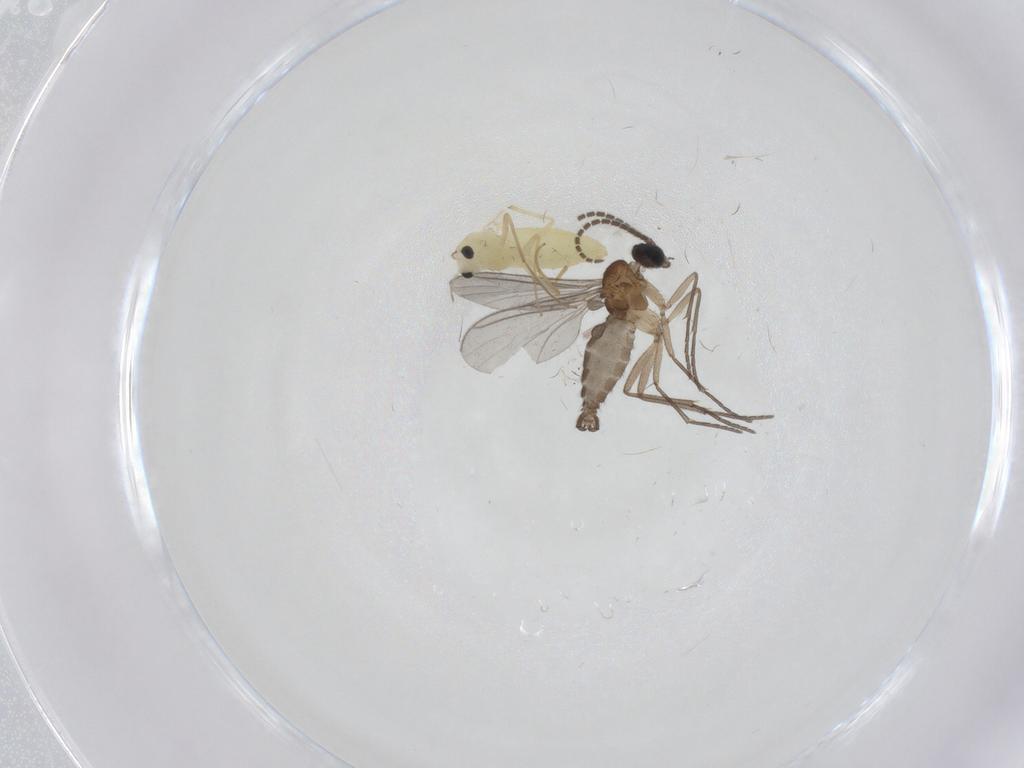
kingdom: Animalia
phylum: Arthropoda
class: Insecta
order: Diptera
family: Sciaridae
